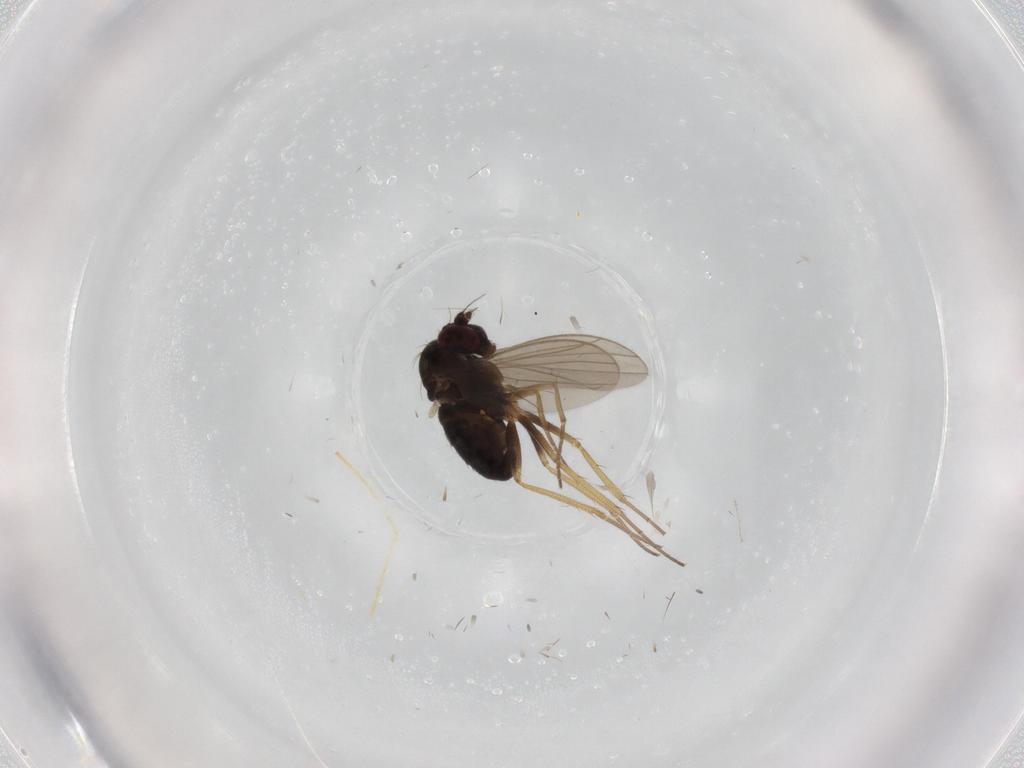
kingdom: Animalia
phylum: Arthropoda
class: Insecta
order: Diptera
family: Dolichopodidae
